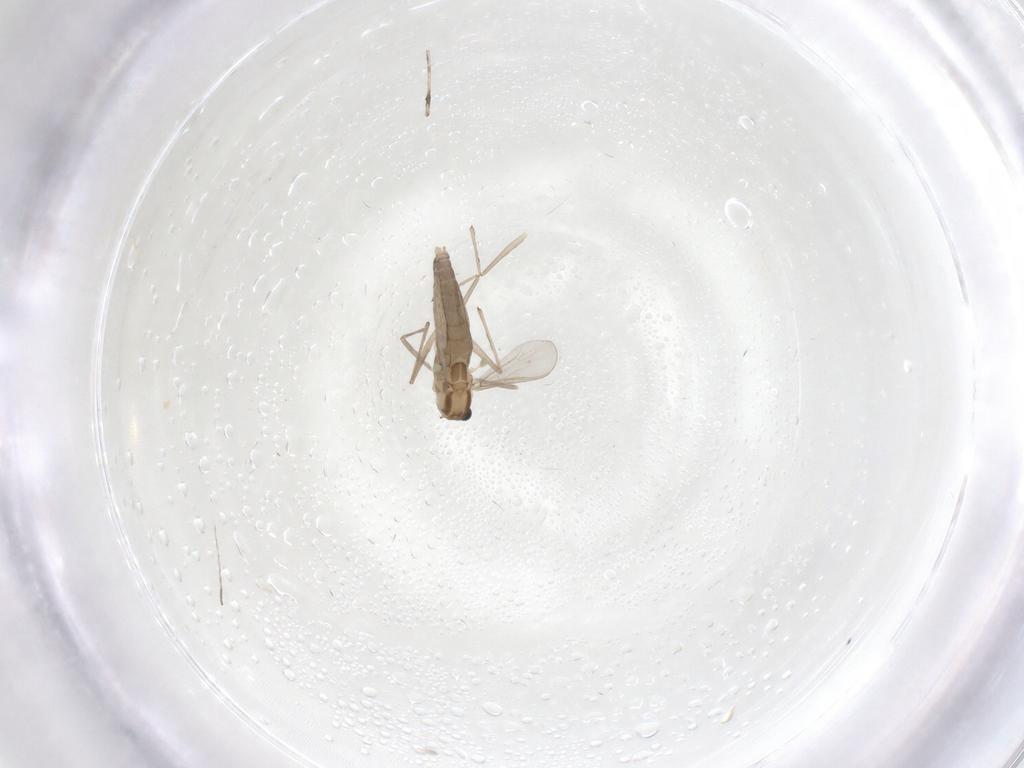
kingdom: Animalia
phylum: Arthropoda
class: Insecta
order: Diptera
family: Chironomidae
